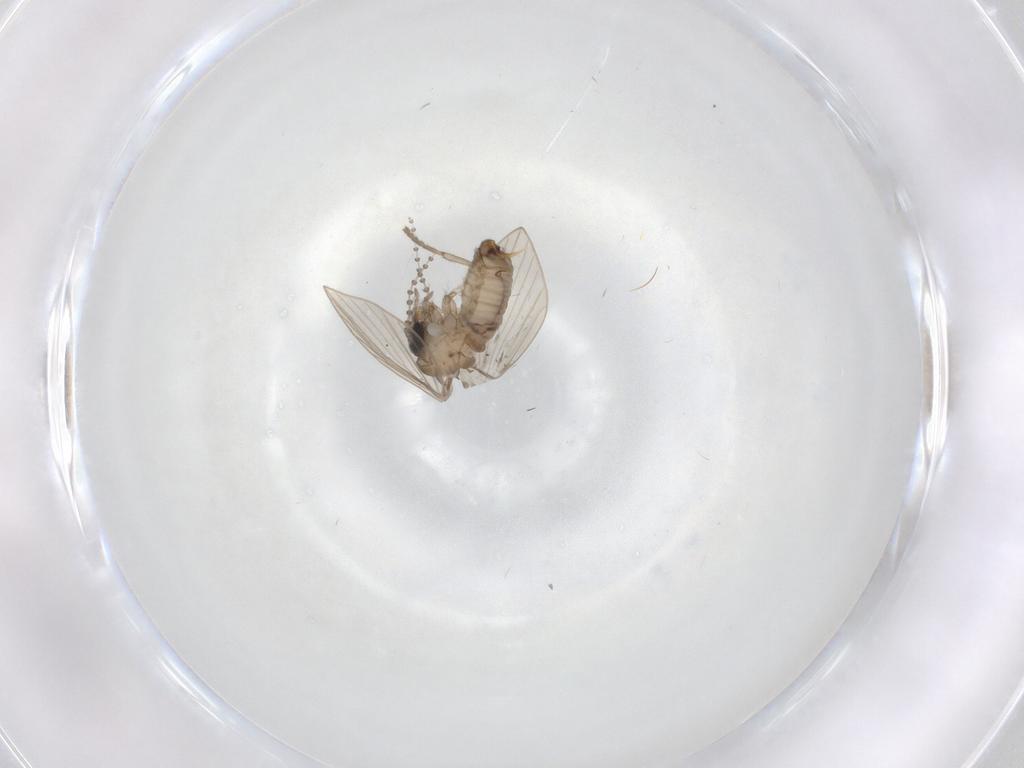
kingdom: Animalia
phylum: Arthropoda
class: Insecta
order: Diptera
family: Psychodidae
